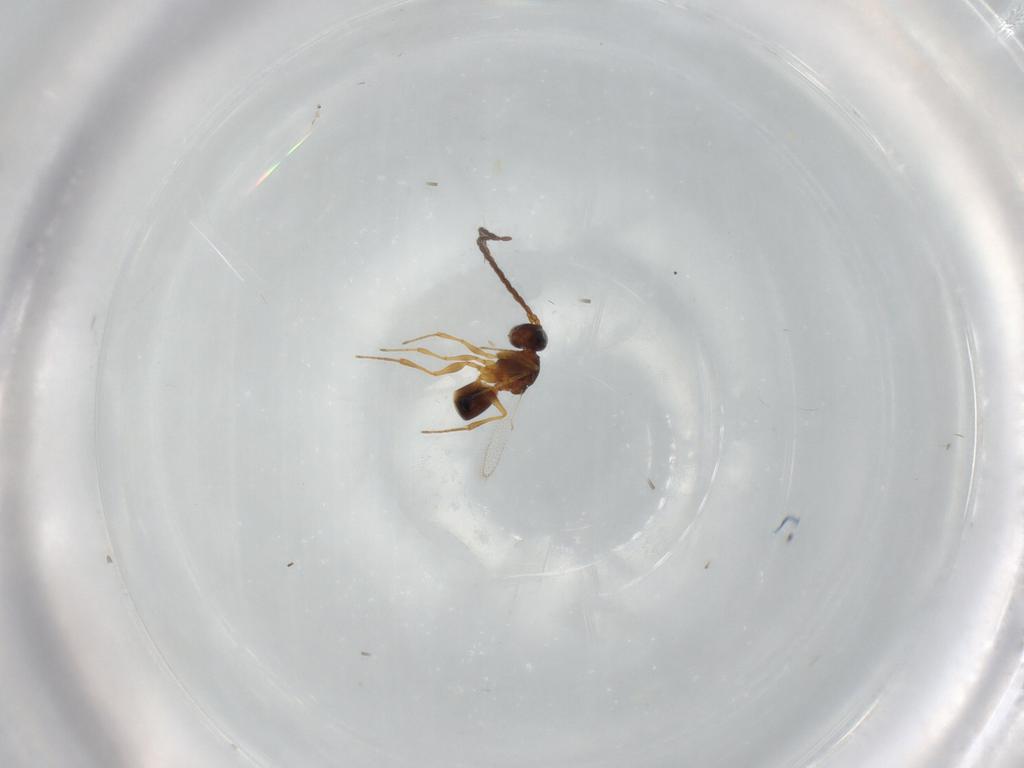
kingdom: Animalia
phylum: Arthropoda
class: Insecta
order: Hymenoptera
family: Figitidae
